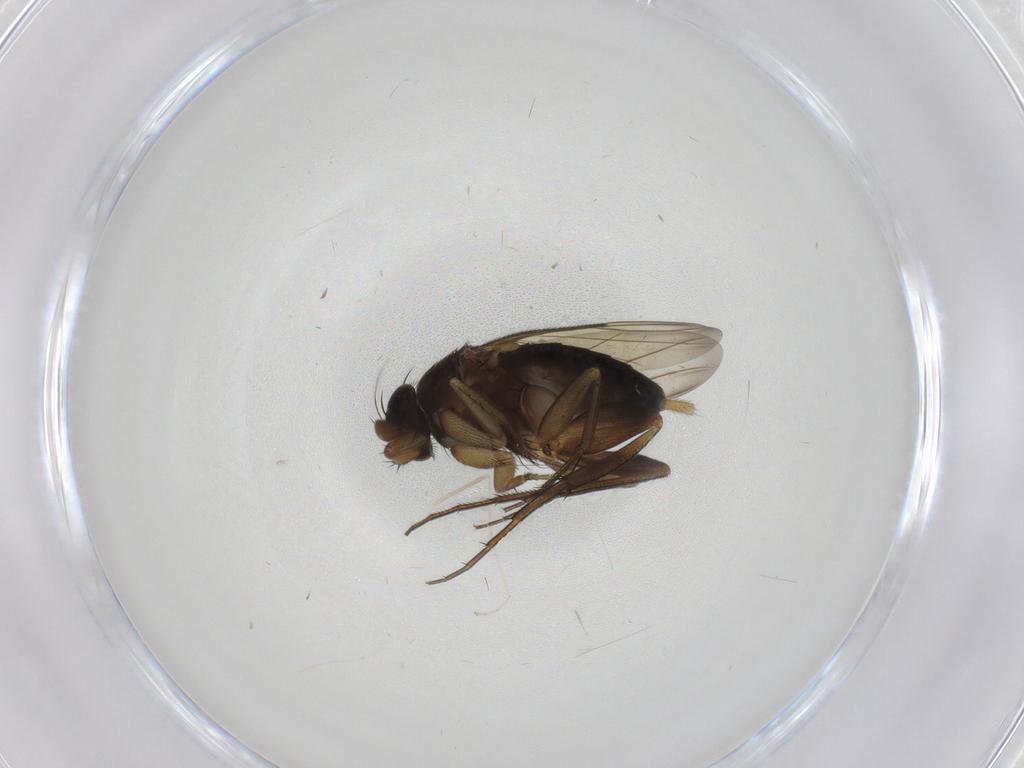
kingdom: Animalia
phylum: Arthropoda
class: Insecta
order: Diptera
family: Phoridae
